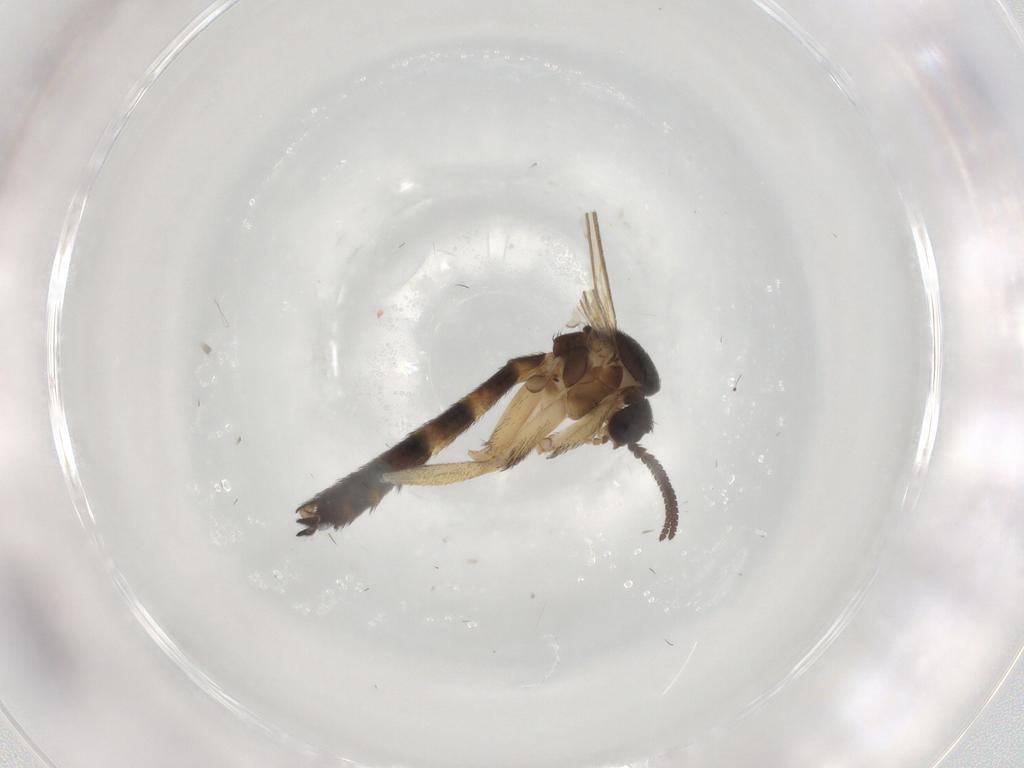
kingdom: Animalia
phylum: Arthropoda
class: Insecta
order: Diptera
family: Keroplatidae
